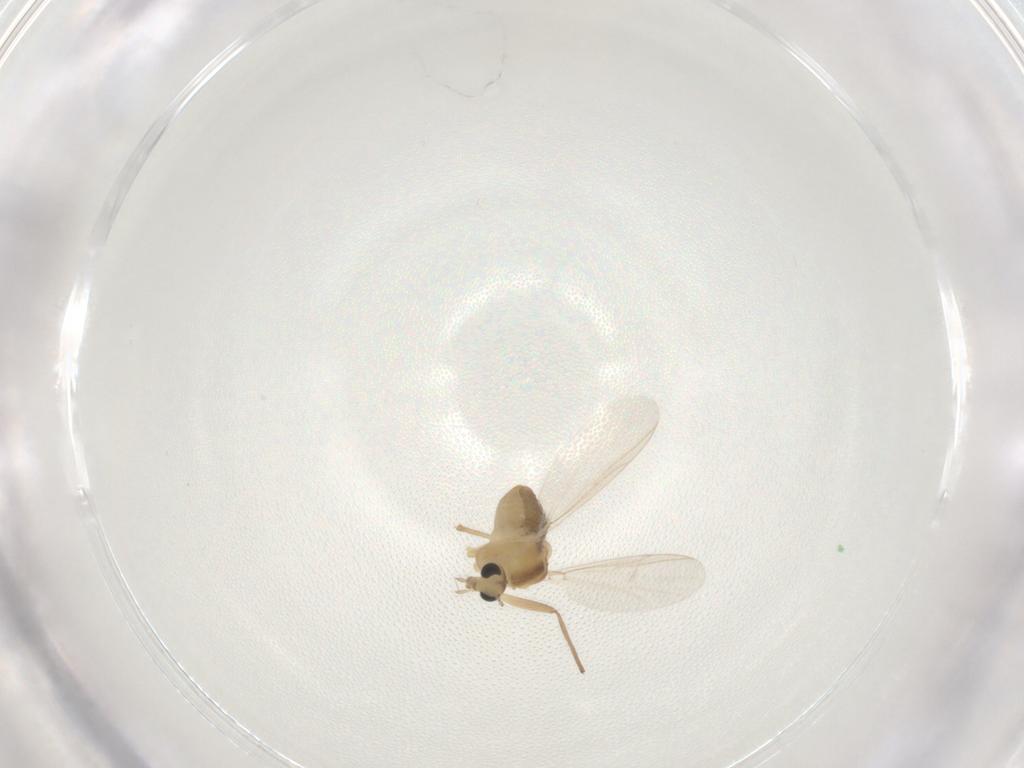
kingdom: Animalia
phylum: Arthropoda
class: Insecta
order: Diptera
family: Chironomidae
